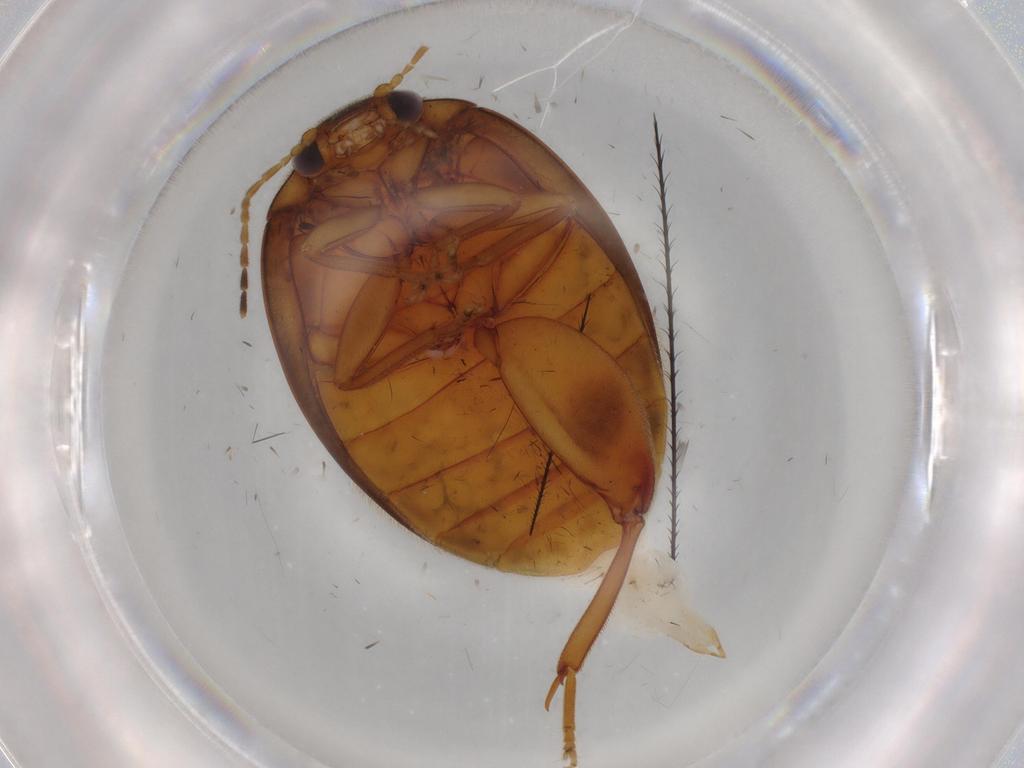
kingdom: Animalia
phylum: Arthropoda
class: Insecta
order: Coleoptera
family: Scirtidae
